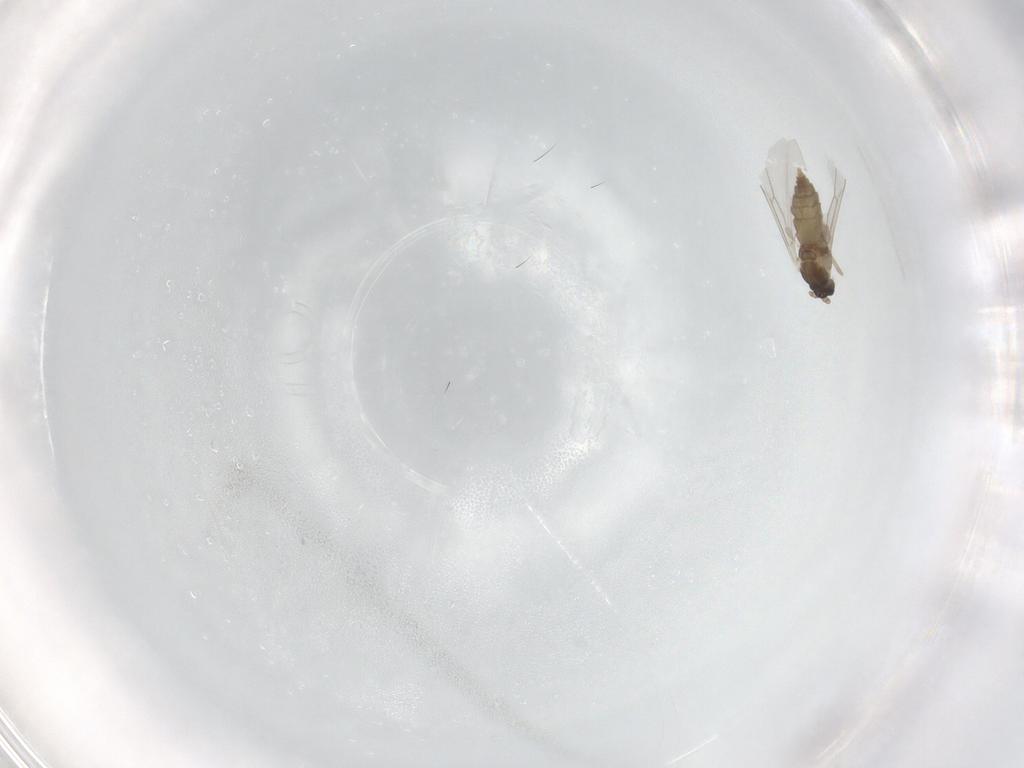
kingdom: Animalia
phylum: Arthropoda
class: Insecta
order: Diptera
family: Cecidomyiidae
